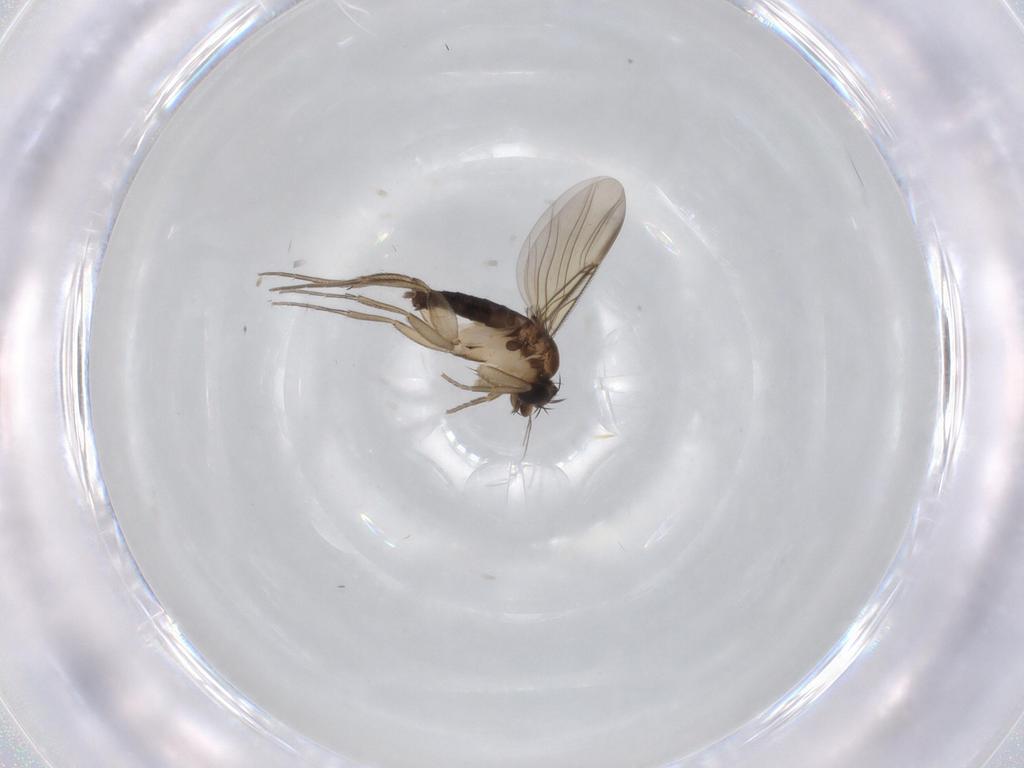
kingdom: Animalia
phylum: Arthropoda
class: Insecta
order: Diptera
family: Phoridae
